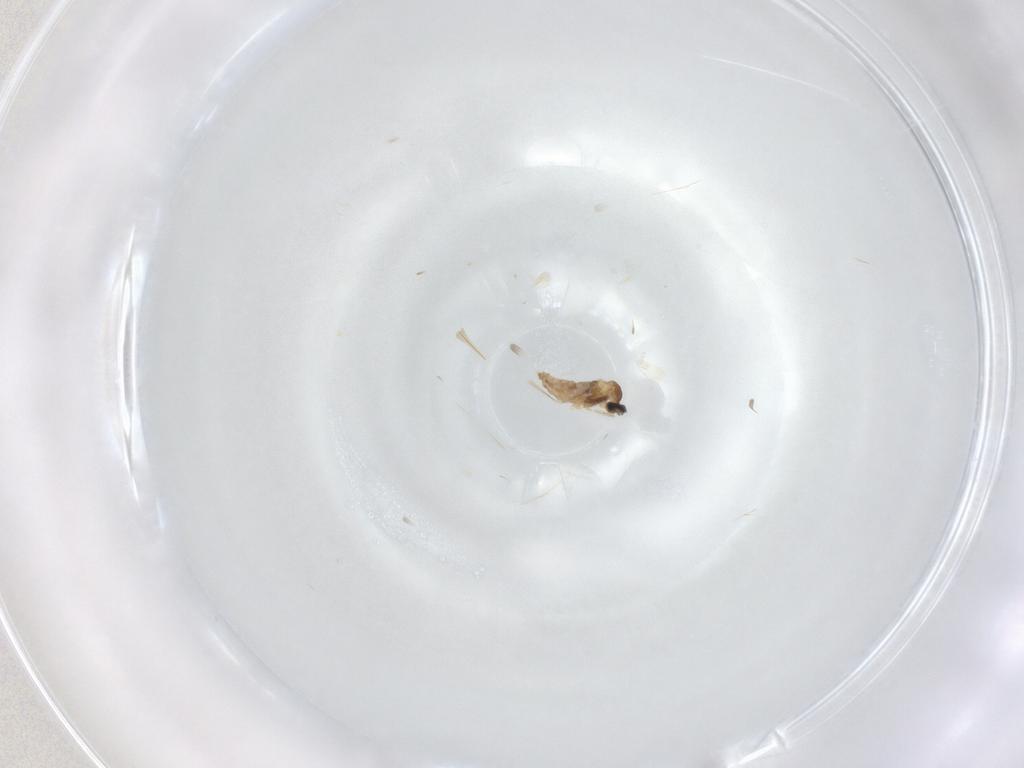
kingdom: Animalia
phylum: Arthropoda
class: Insecta
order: Diptera
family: Cecidomyiidae
